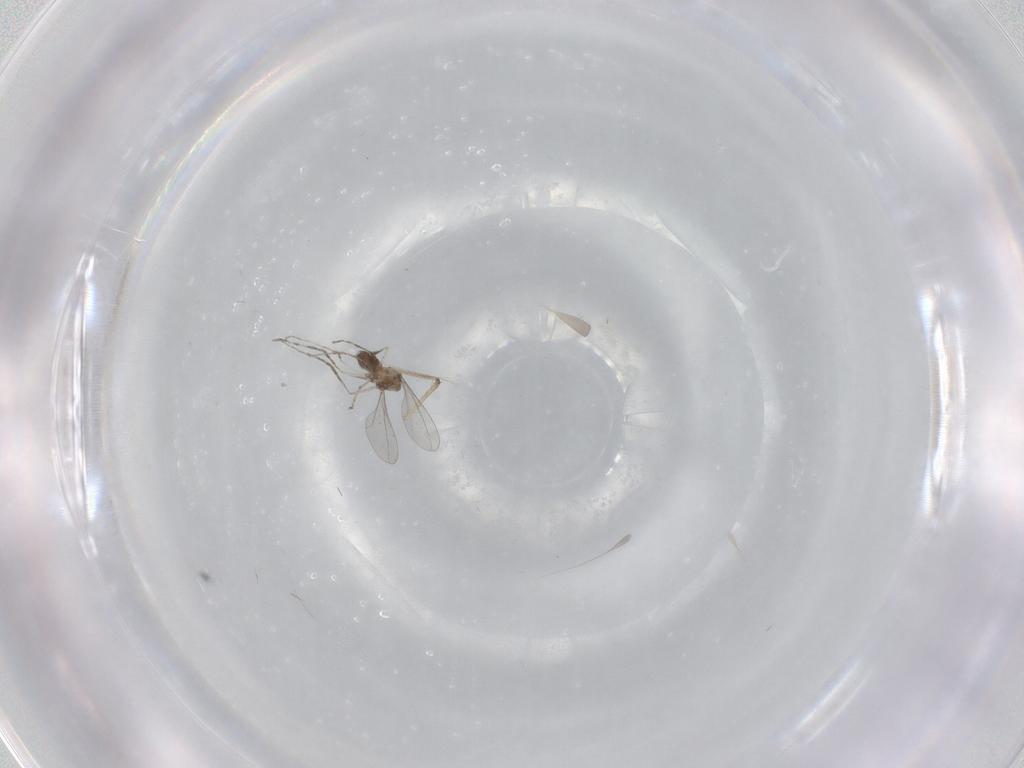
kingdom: Animalia
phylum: Arthropoda
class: Insecta
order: Diptera
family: Cecidomyiidae
